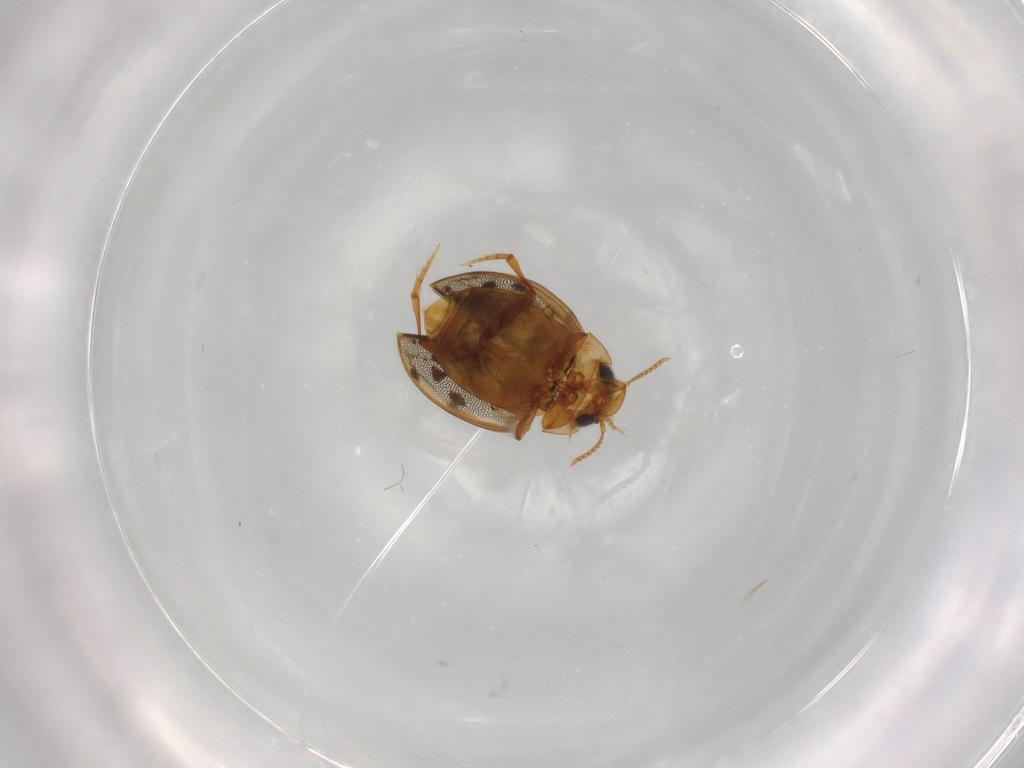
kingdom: Animalia
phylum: Arthropoda
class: Insecta
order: Coleoptera
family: Dytiscidae
